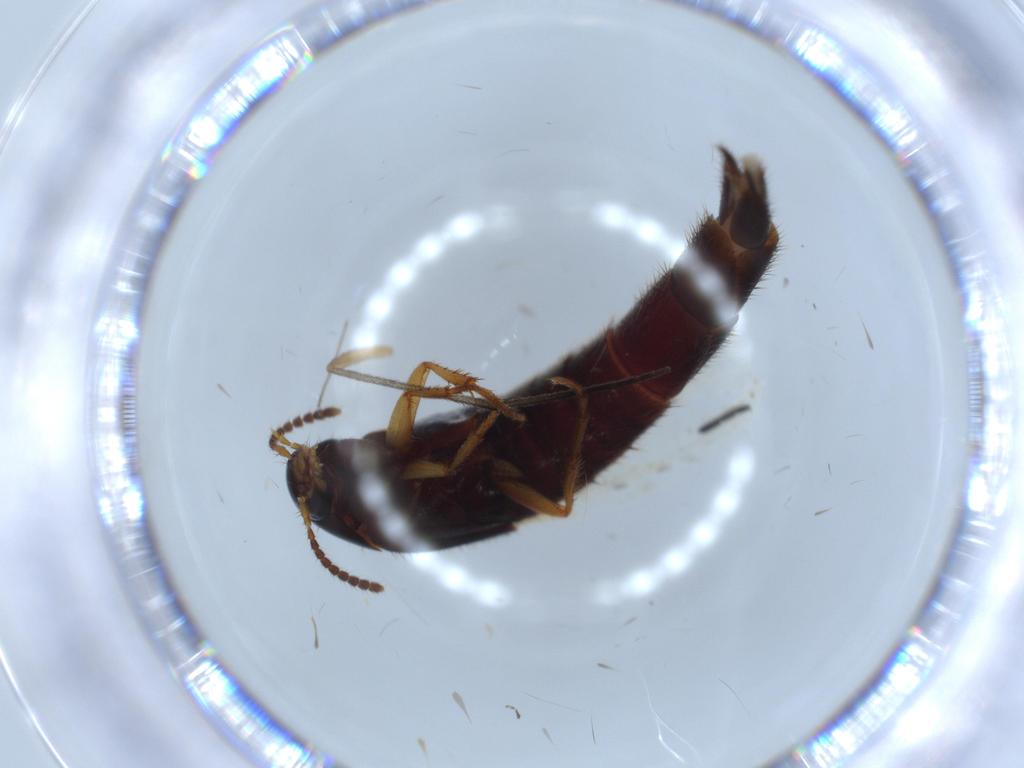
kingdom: Animalia
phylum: Arthropoda
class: Insecta
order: Coleoptera
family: Staphylinidae
